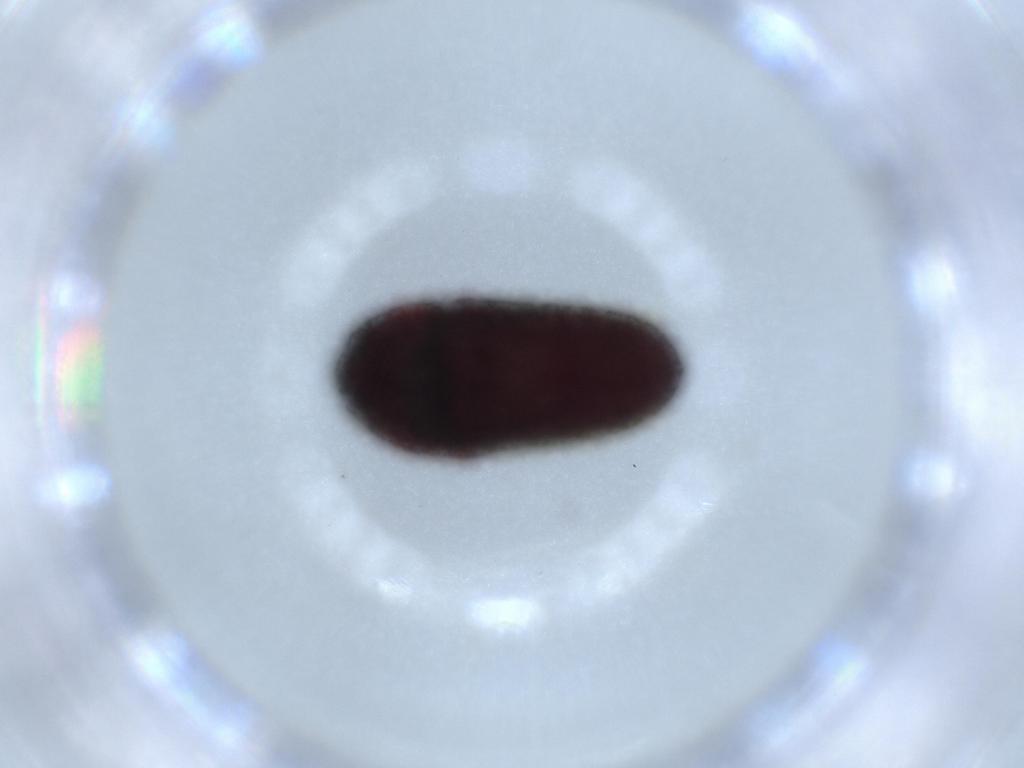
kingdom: Animalia
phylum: Arthropoda
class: Insecta
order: Coleoptera
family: Throscidae
